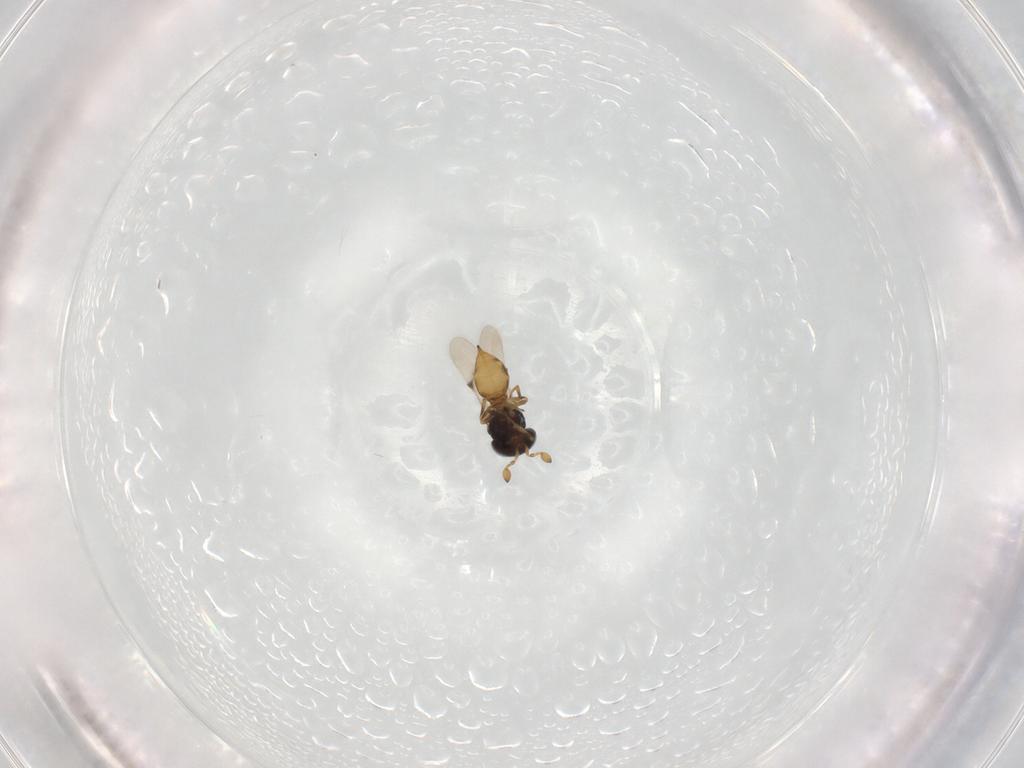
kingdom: Animalia
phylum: Arthropoda
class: Insecta
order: Hymenoptera
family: Scelionidae
